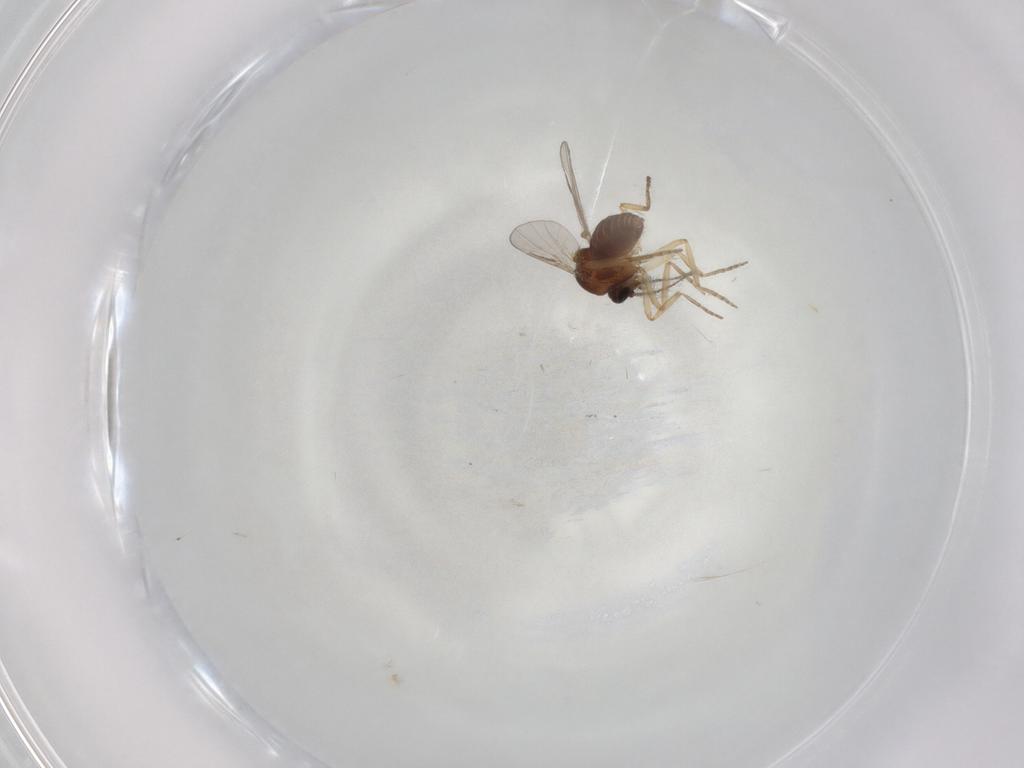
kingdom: Animalia
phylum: Arthropoda
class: Insecta
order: Diptera
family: Ceratopogonidae
